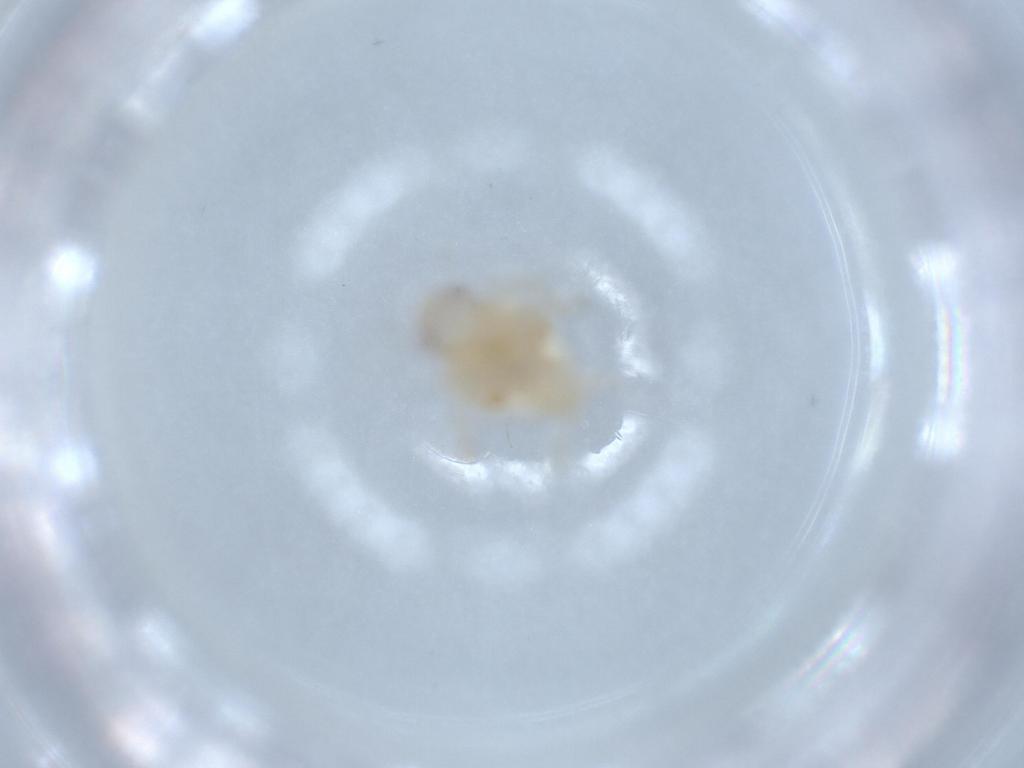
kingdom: Animalia
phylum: Arthropoda
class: Insecta
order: Hemiptera
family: Nogodinidae
